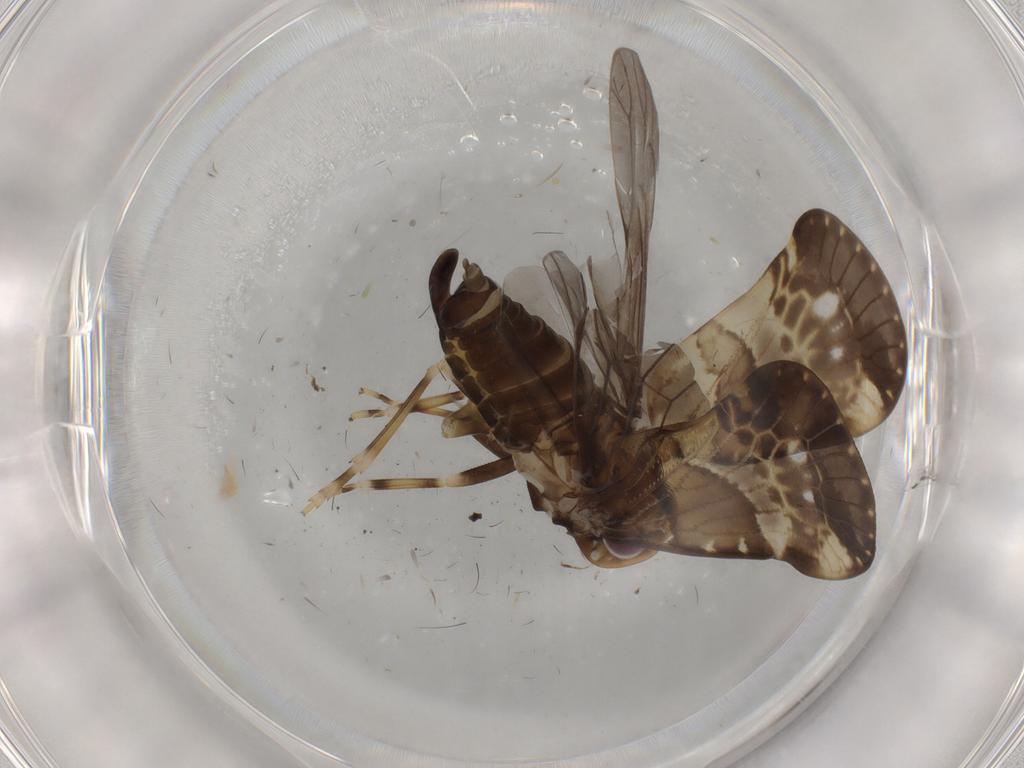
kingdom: Animalia
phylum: Arthropoda
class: Insecta
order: Hemiptera
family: Cixiidae
